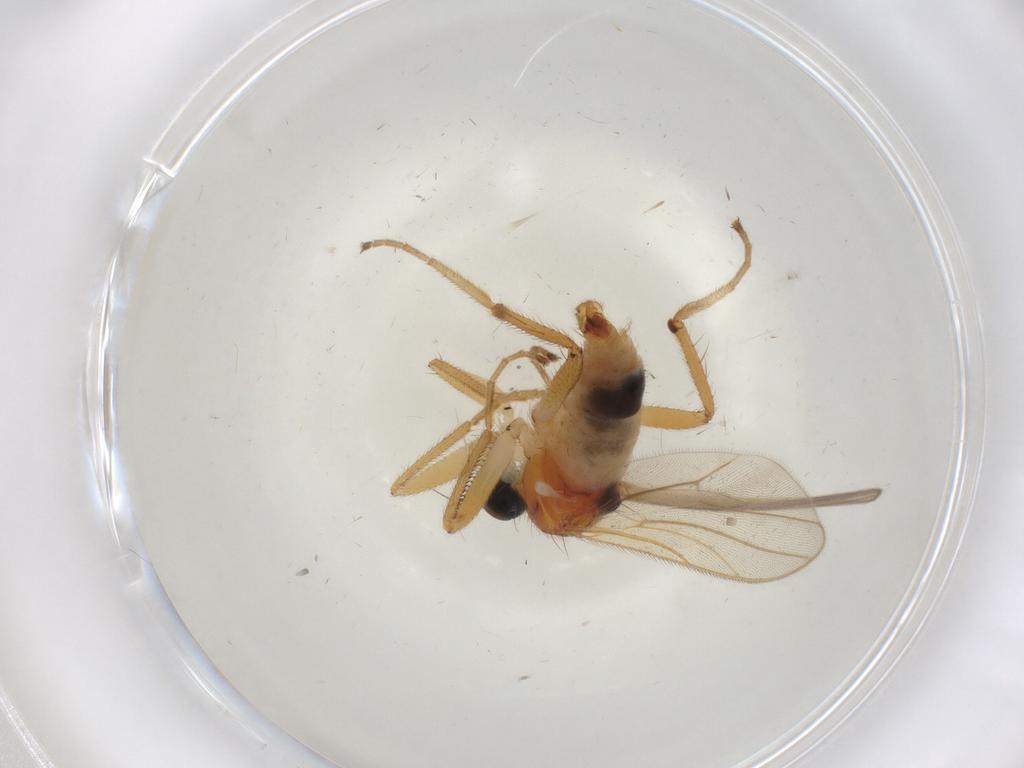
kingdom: Animalia
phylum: Arthropoda
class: Insecta
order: Diptera
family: Hybotidae
